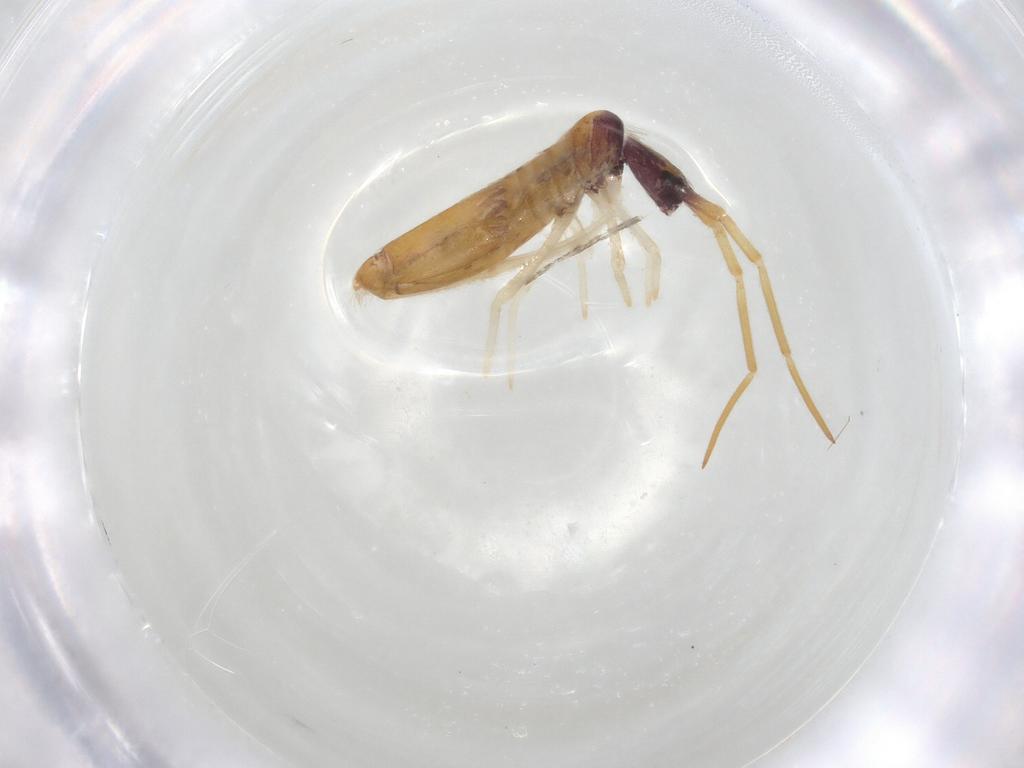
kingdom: Animalia
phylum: Arthropoda
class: Collembola
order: Entomobryomorpha
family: Entomobryidae
